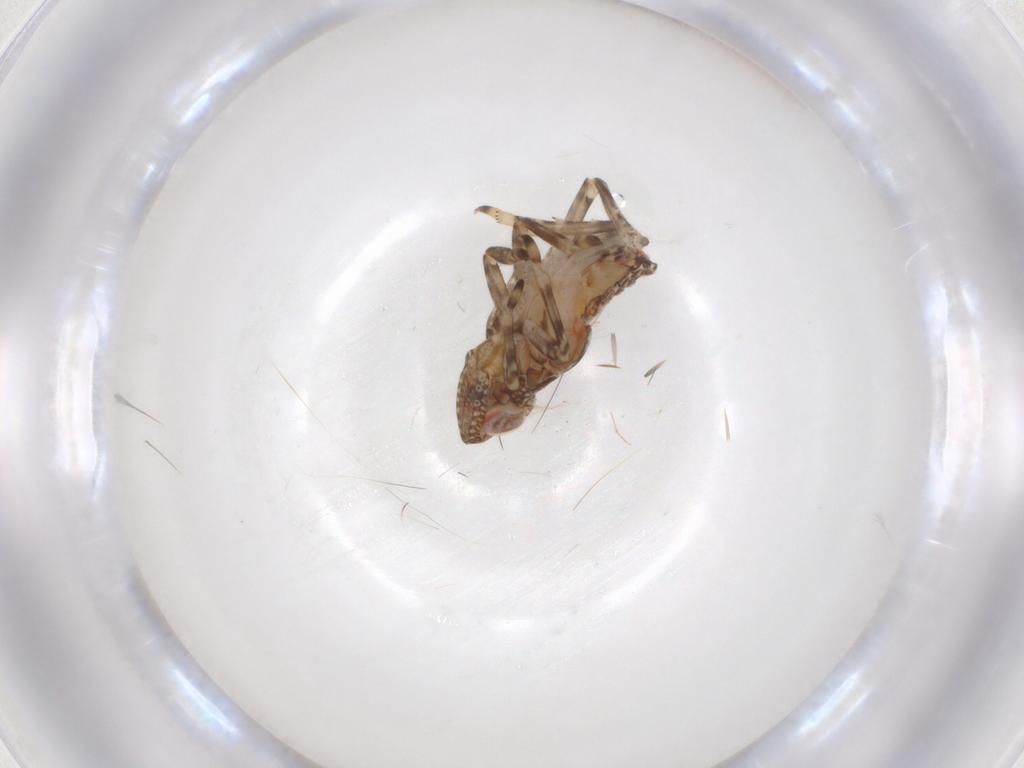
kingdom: Animalia
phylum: Arthropoda
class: Insecta
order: Hemiptera
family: Tropiduchidae
